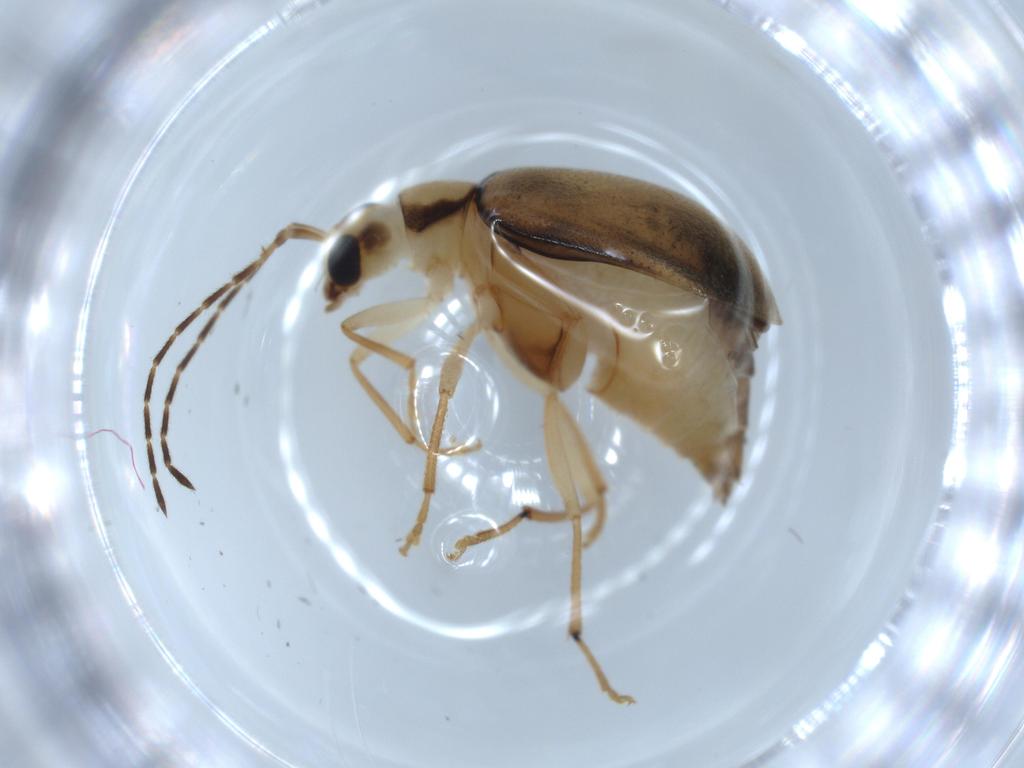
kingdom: Animalia
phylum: Arthropoda
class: Insecta
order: Coleoptera
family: Chrysomelidae
